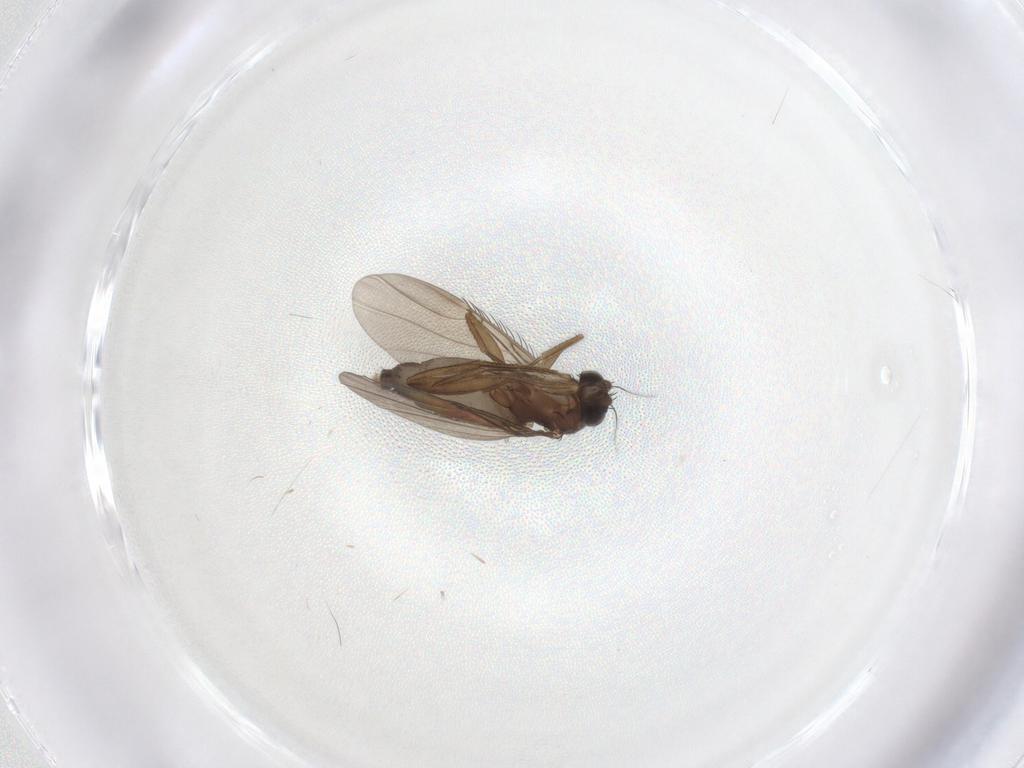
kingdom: Animalia
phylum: Arthropoda
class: Insecta
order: Diptera
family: Phoridae
